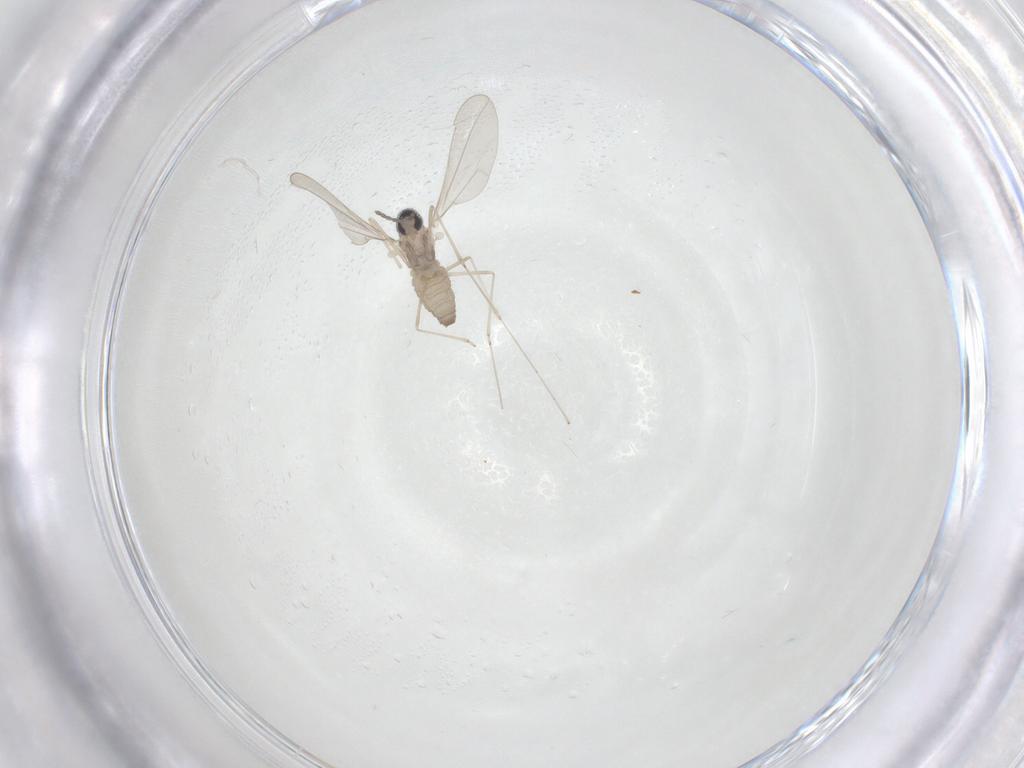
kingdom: Animalia
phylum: Arthropoda
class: Insecta
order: Diptera
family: Cecidomyiidae
